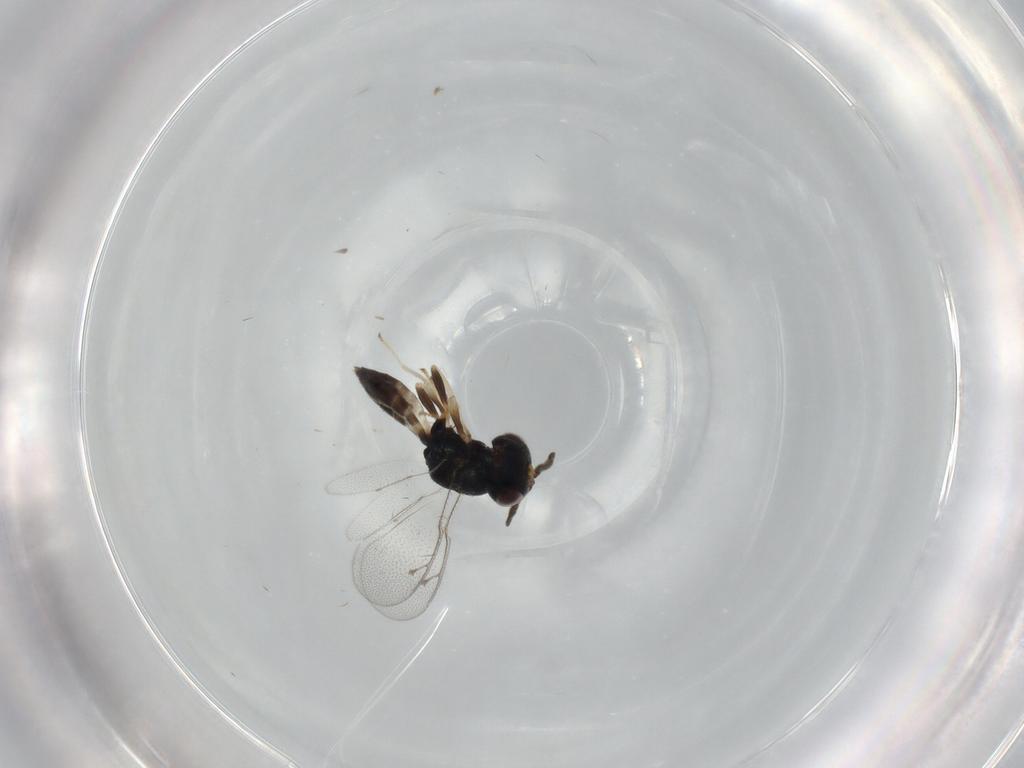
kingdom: Animalia
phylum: Arthropoda
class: Insecta
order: Hymenoptera
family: Pteromalidae
